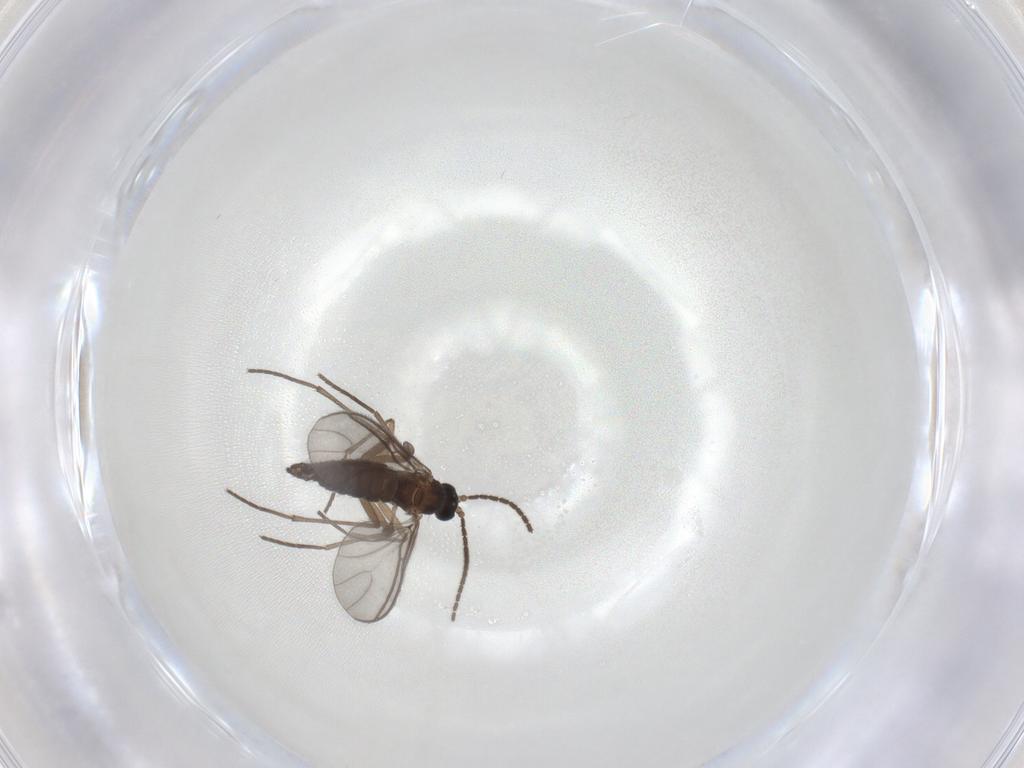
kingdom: Animalia
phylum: Arthropoda
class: Insecta
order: Diptera
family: Sciaridae
